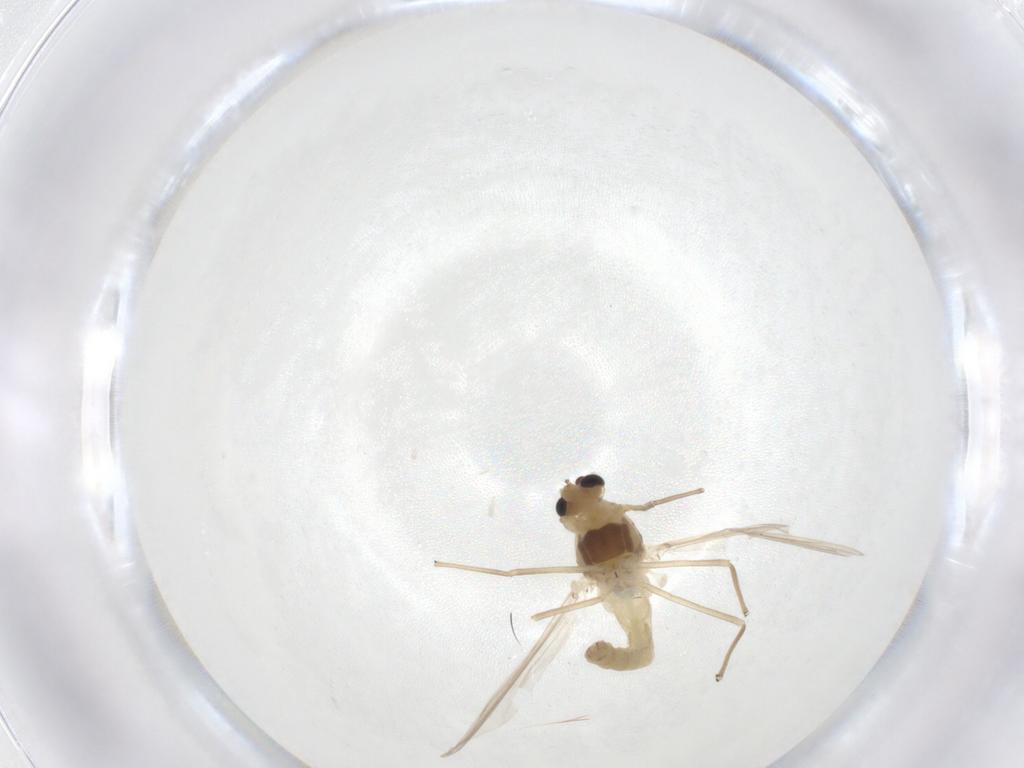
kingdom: Animalia
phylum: Arthropoda
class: Insecta
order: Diptera
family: Chironomidae
